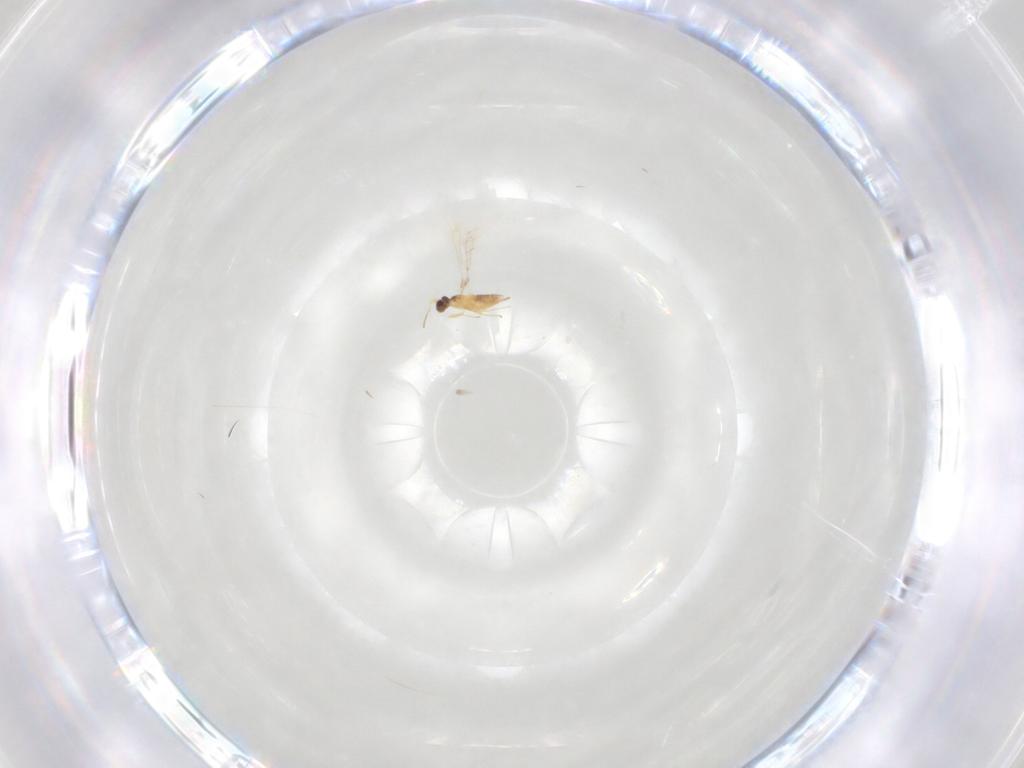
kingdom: Animalia
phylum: Arthropoda
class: Insecta
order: Hymenoptera
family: Mymaridae
